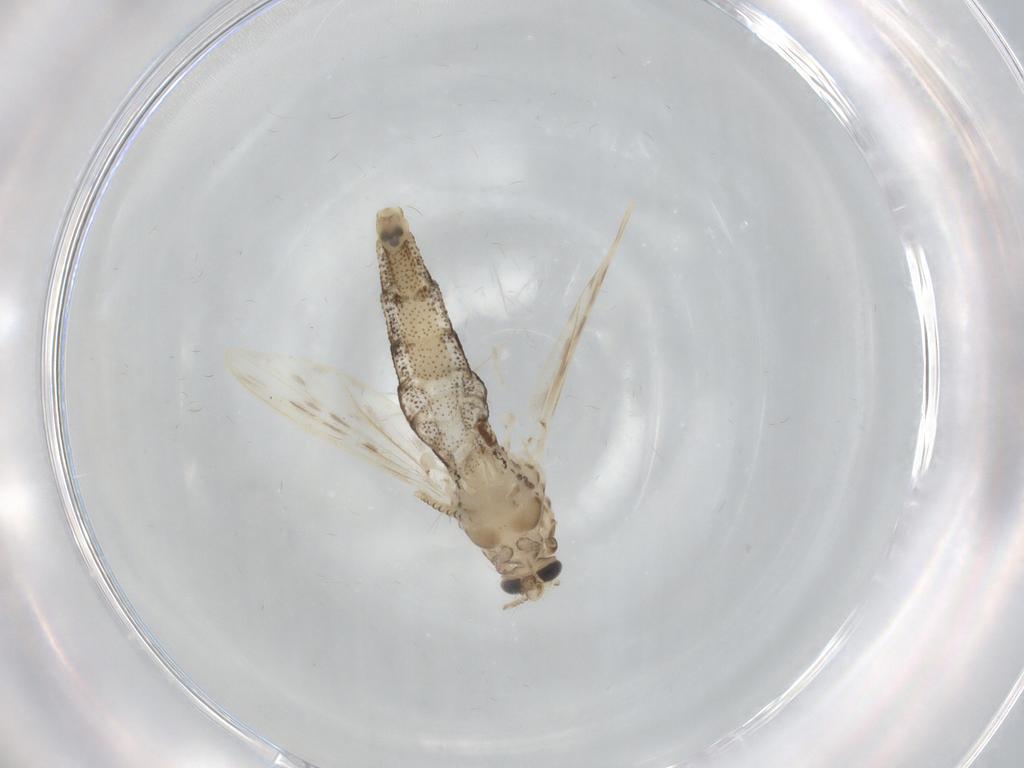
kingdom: Animalia
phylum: Arthropoda
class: Insecta
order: Diptera
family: Chaoboridae
